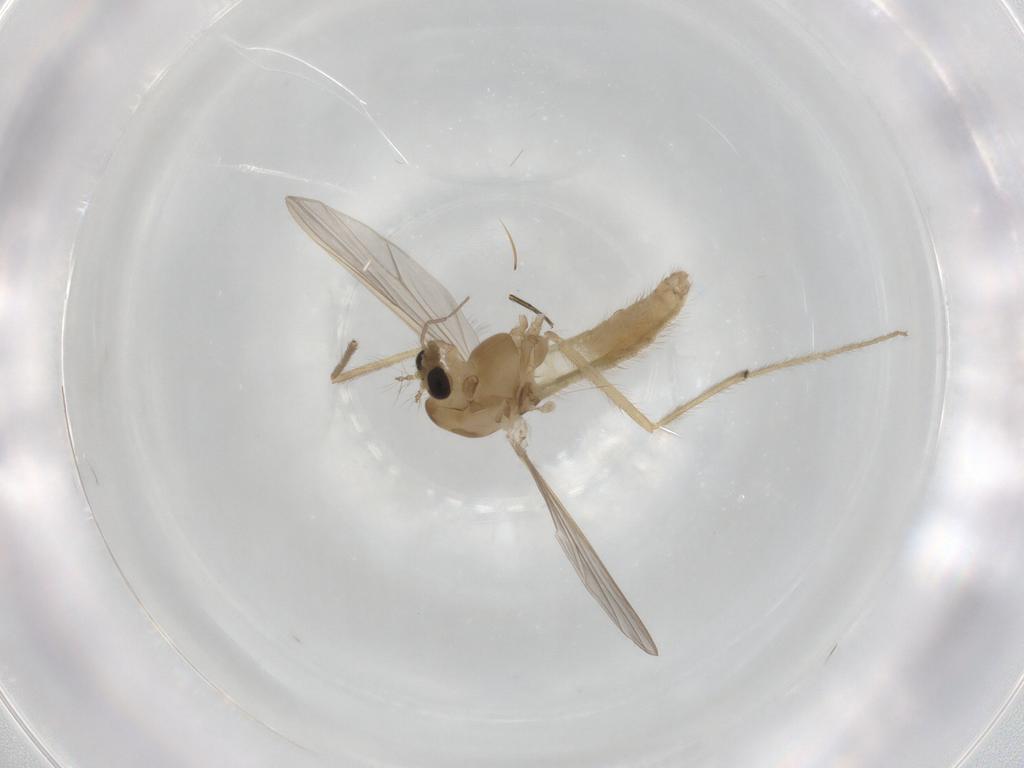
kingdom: Animalia
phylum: Arthropoda
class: Insecta
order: Diptera
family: Chironomidae
